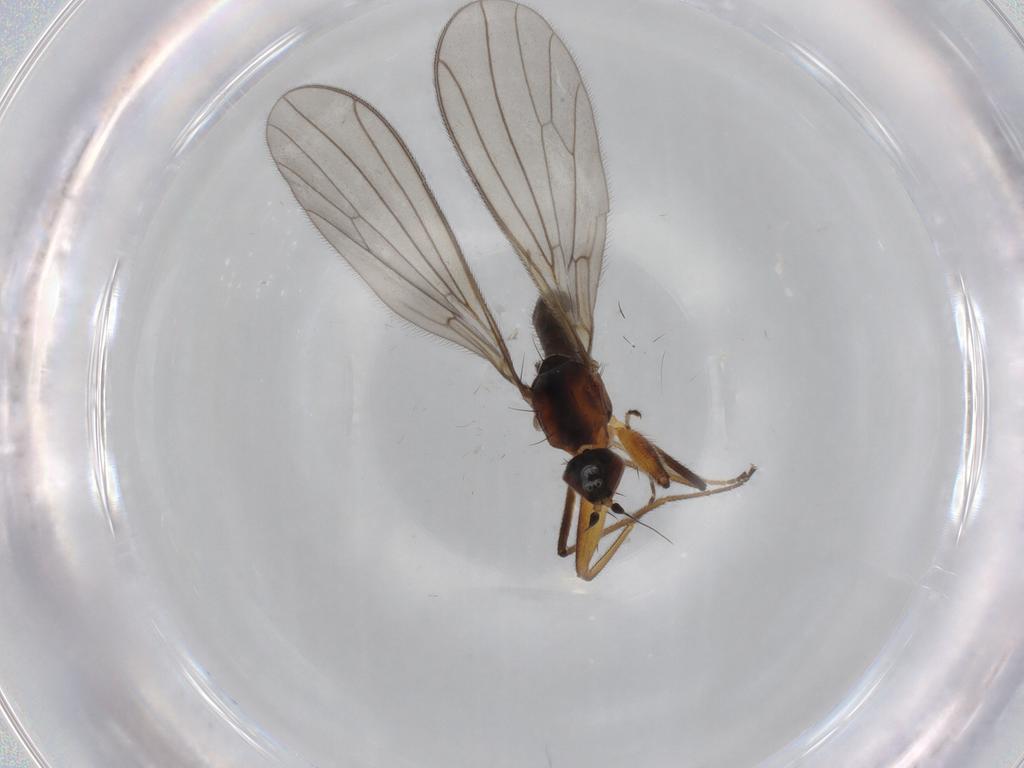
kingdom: Animalia
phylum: Arthropoda
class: Insecta
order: Diptera
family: Empididae
